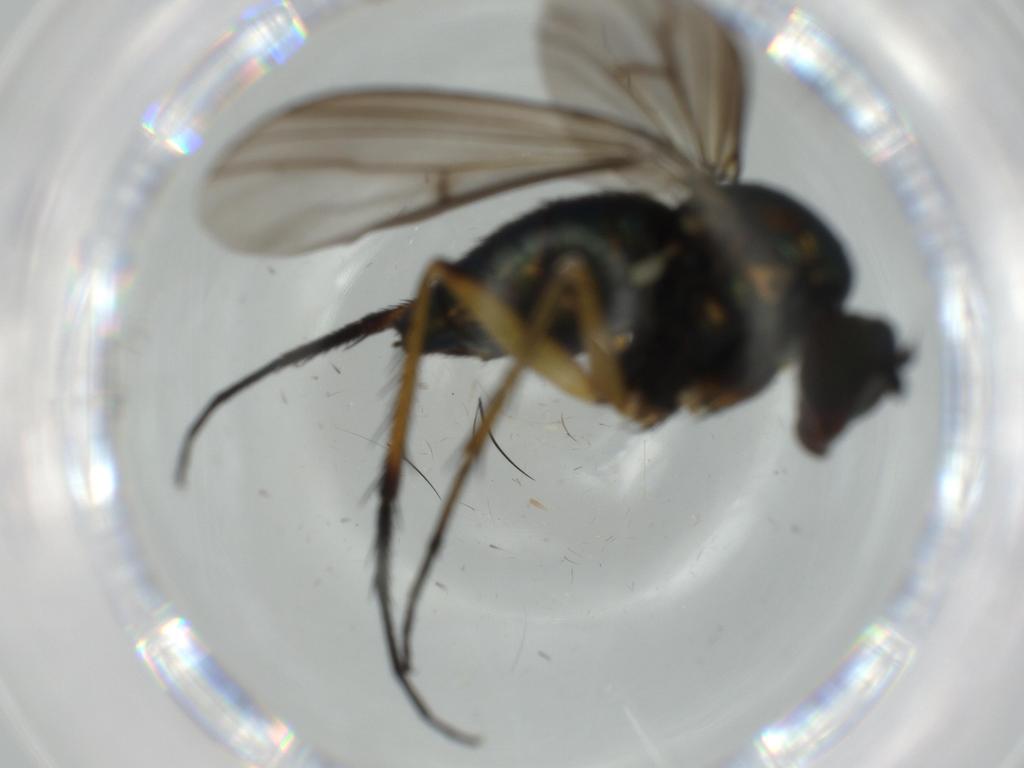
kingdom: Animalia
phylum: Arthropoda
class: Insecta
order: Diptera
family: Dolichopodidae
